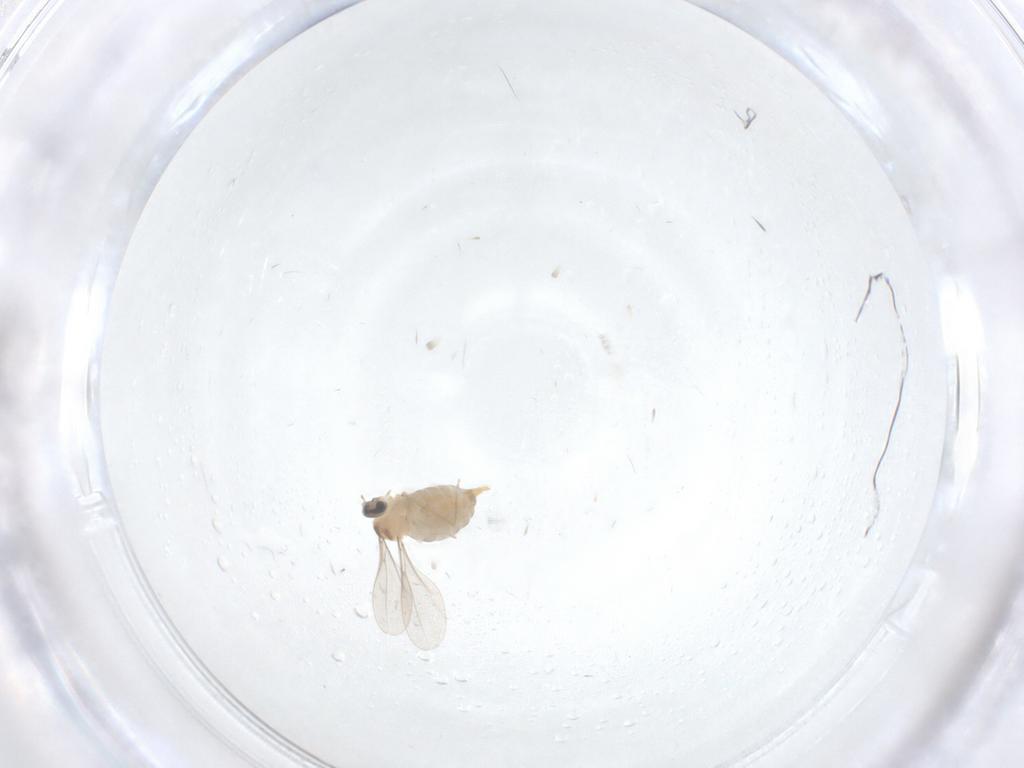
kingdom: Animalia
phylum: Arthropoda
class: Insecta
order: Diptera
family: Cecidomyiidae
